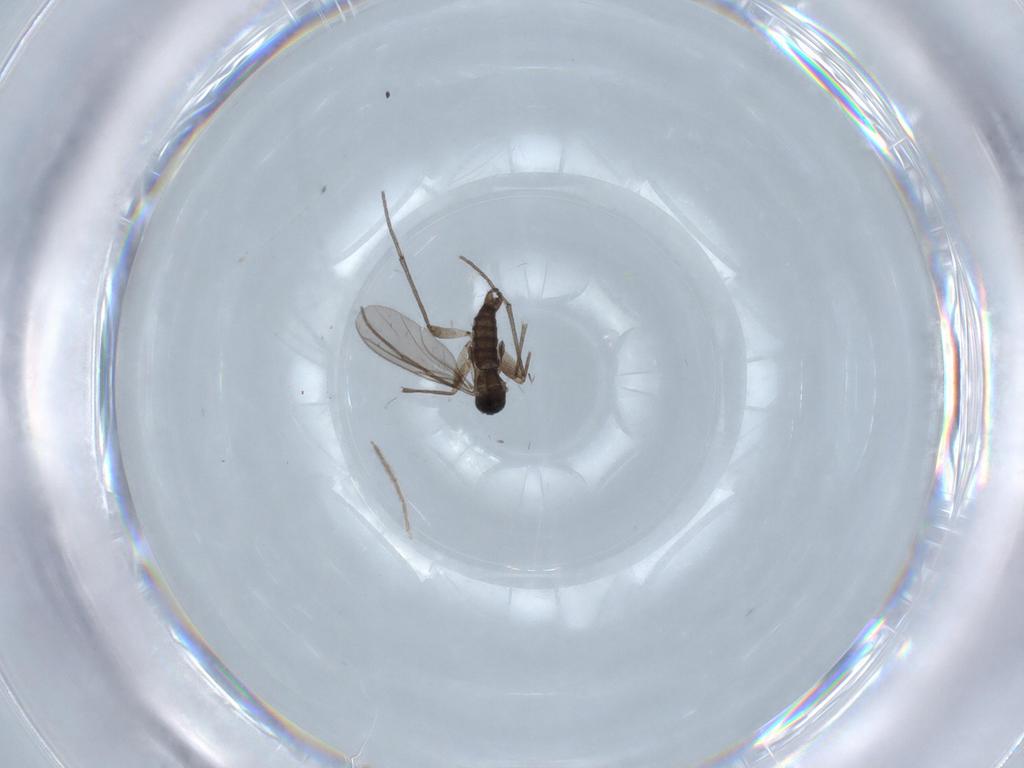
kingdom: Animalia
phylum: Arthropoda
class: Insecta
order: Diptera
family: Sciaridae
